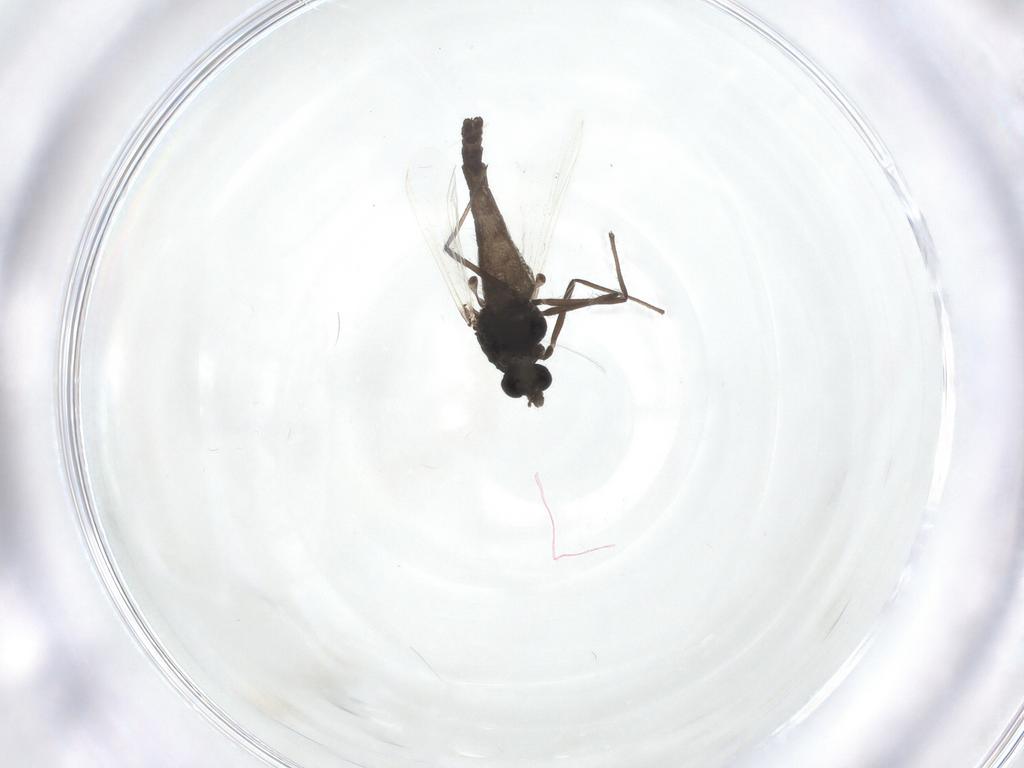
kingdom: Animalia
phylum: Arthropoda
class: Insecta
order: Diptera
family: Chironomidae
